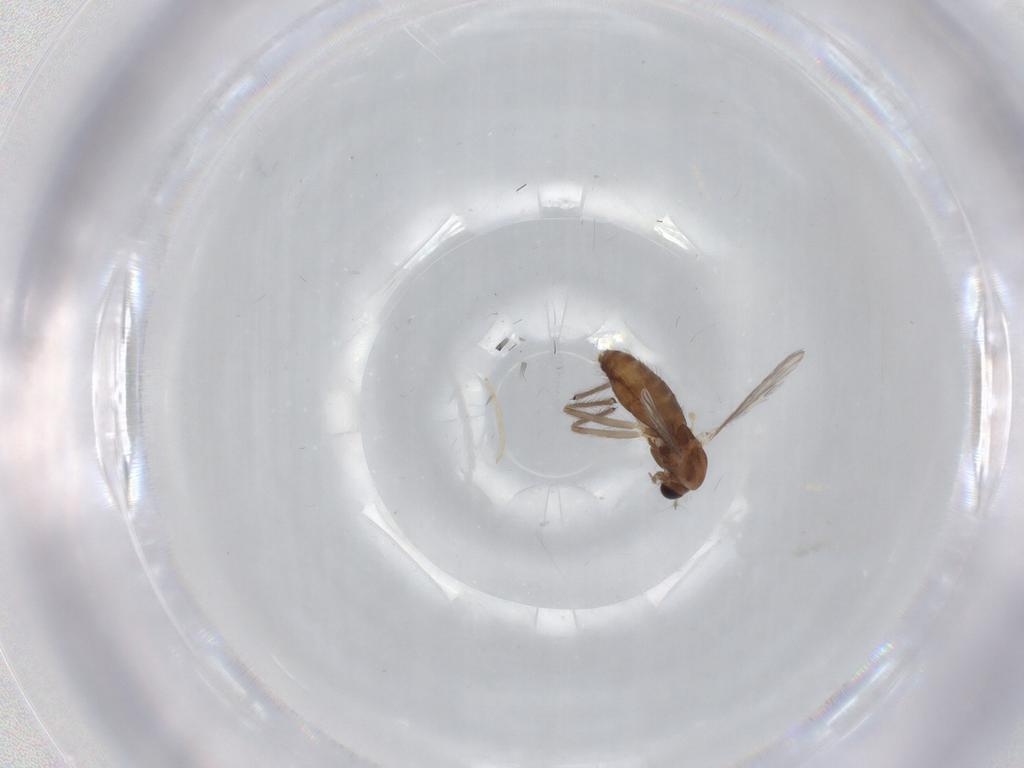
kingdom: Animalia
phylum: Arthropoda
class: Insecta
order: Diptera
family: Chironomidae
